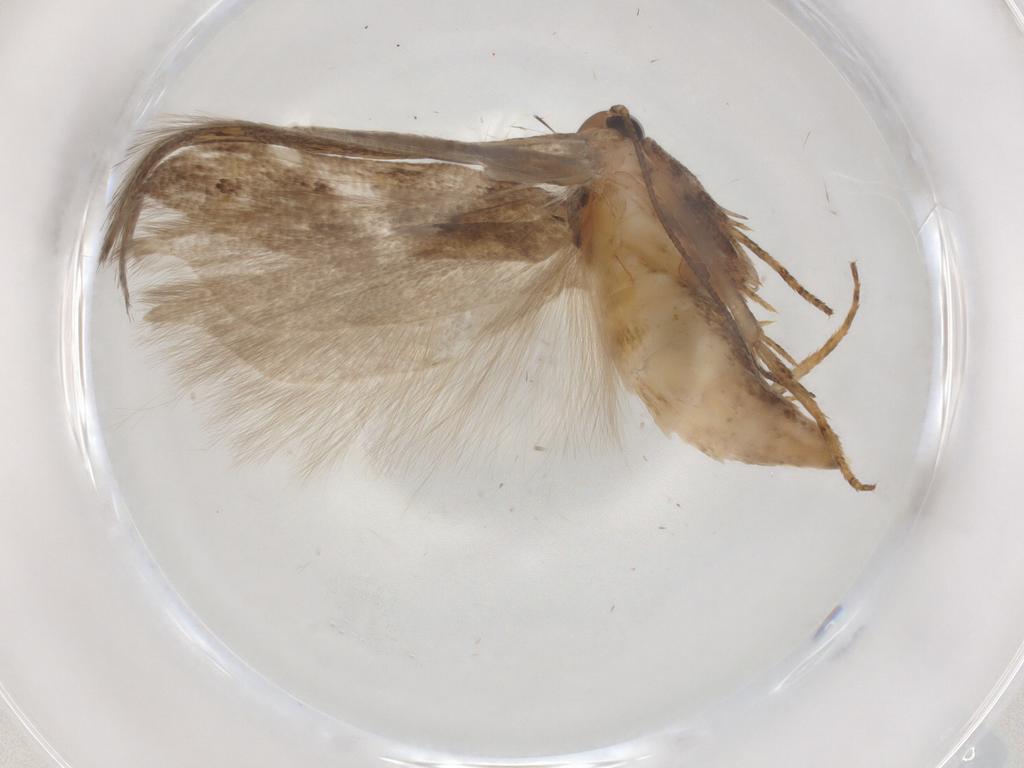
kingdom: Animalia
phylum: Arthropoda
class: Insecta
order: Lepidoptera
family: Gelechiidae
